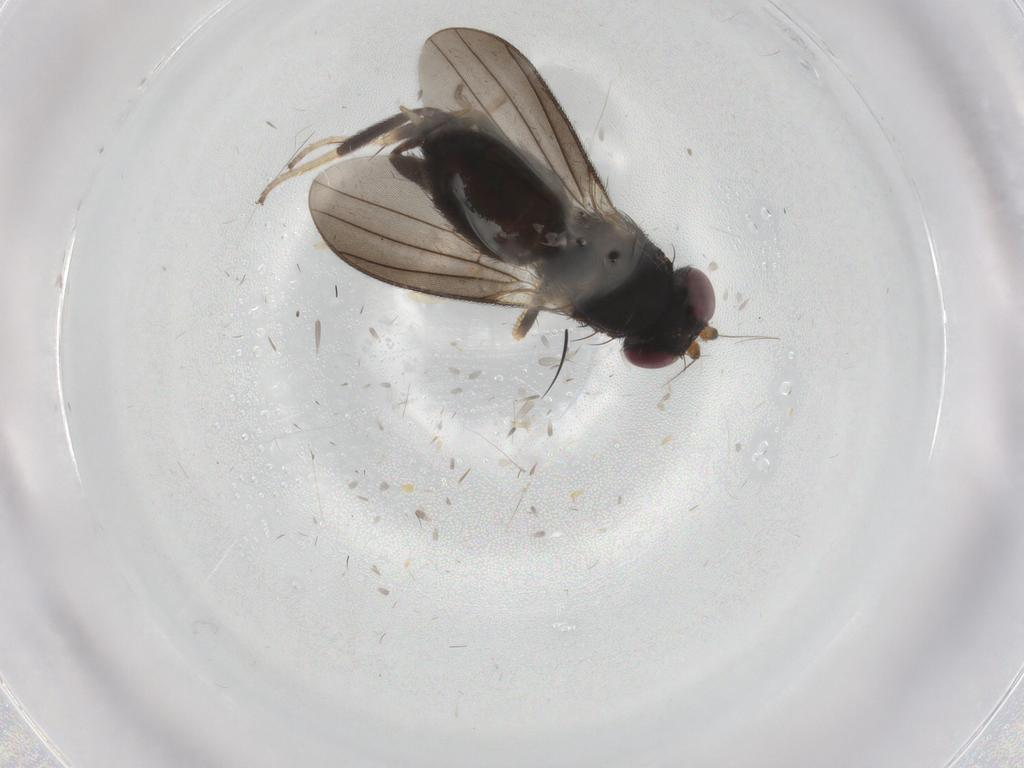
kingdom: Animalia
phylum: Arthropoda
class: Insecta
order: Diptera
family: Clusiidae
